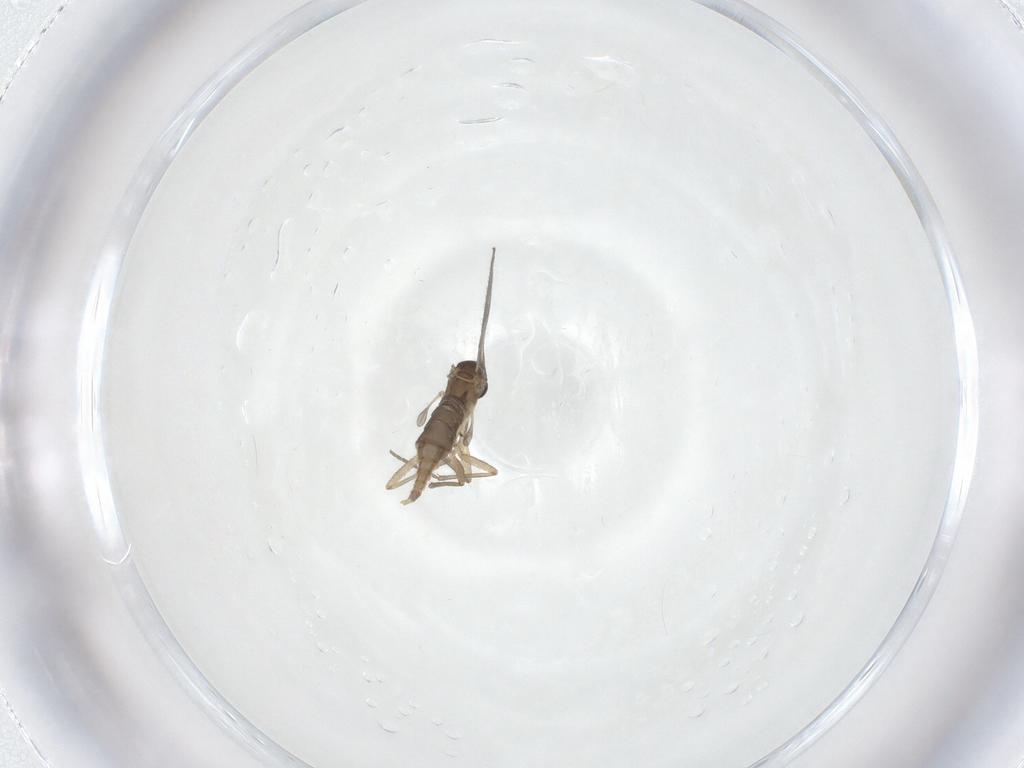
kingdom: Animalia
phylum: Arthropoda
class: Insecta
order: Diptera
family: Sciaridae
